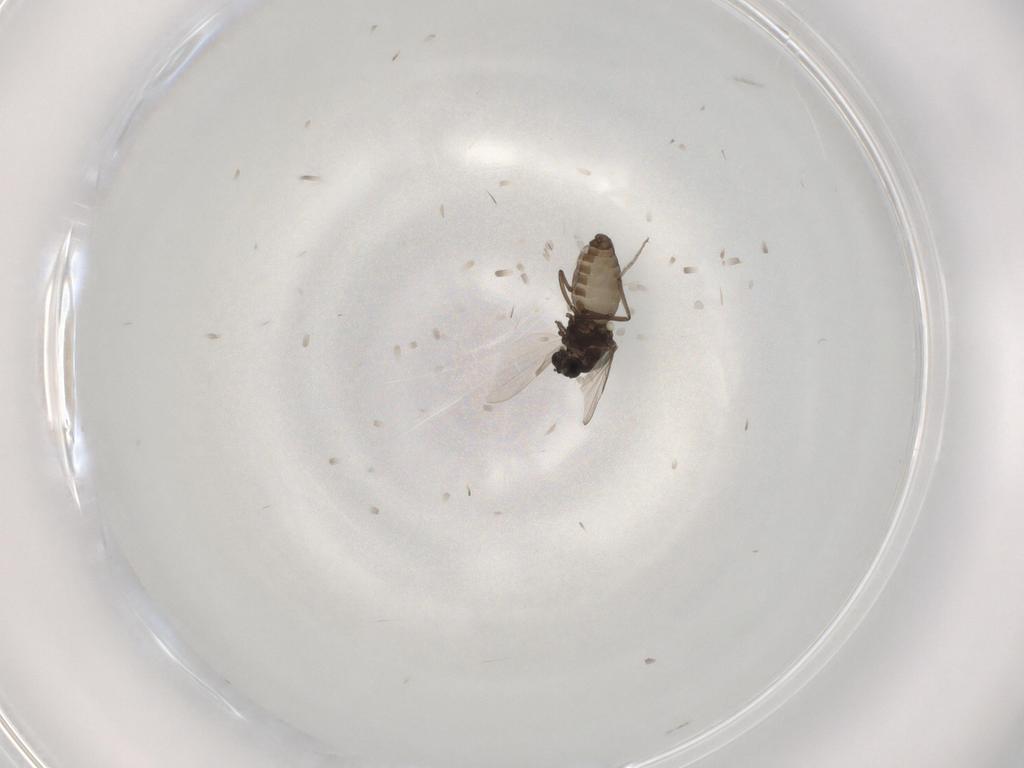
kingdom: Animalia
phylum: Arthropoda
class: Insecta
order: Diptera
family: Ceratopogonidae
